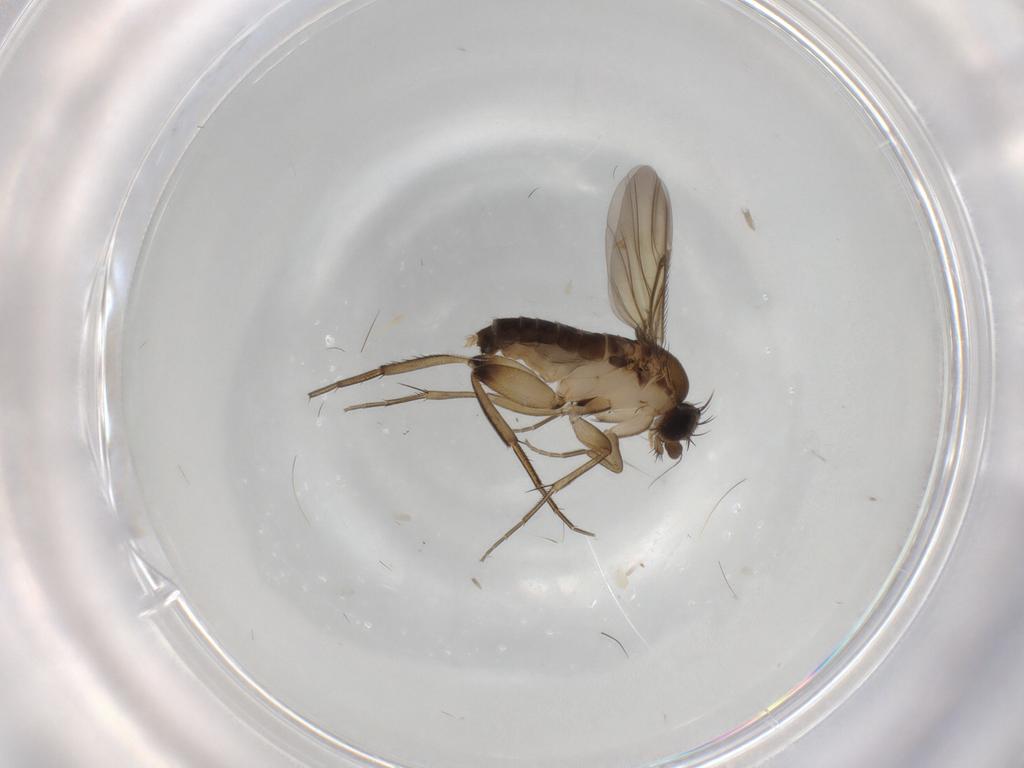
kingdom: Animalia
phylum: Arthropoda
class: Insecta
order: Diptera
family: Phoridae
